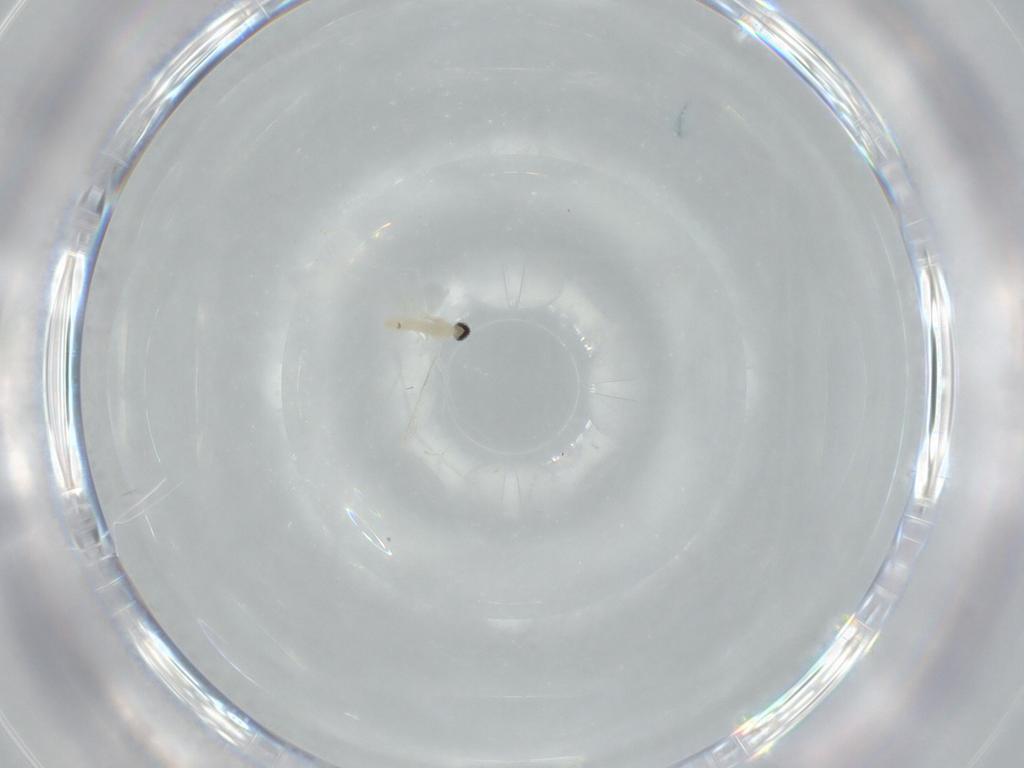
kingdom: Animalia
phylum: Arthropoda
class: Insecta
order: Diptera
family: Cecidomyiidae
